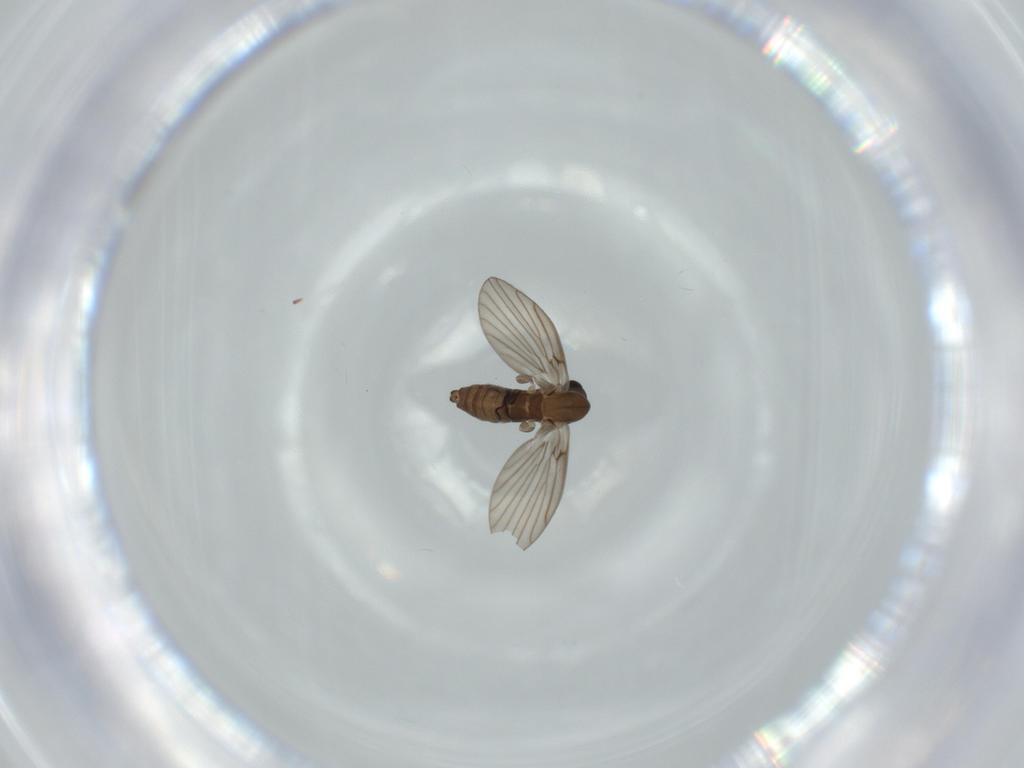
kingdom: Animalia
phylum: Arthropoda
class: Insecta
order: Diptera
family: Psychodidae
